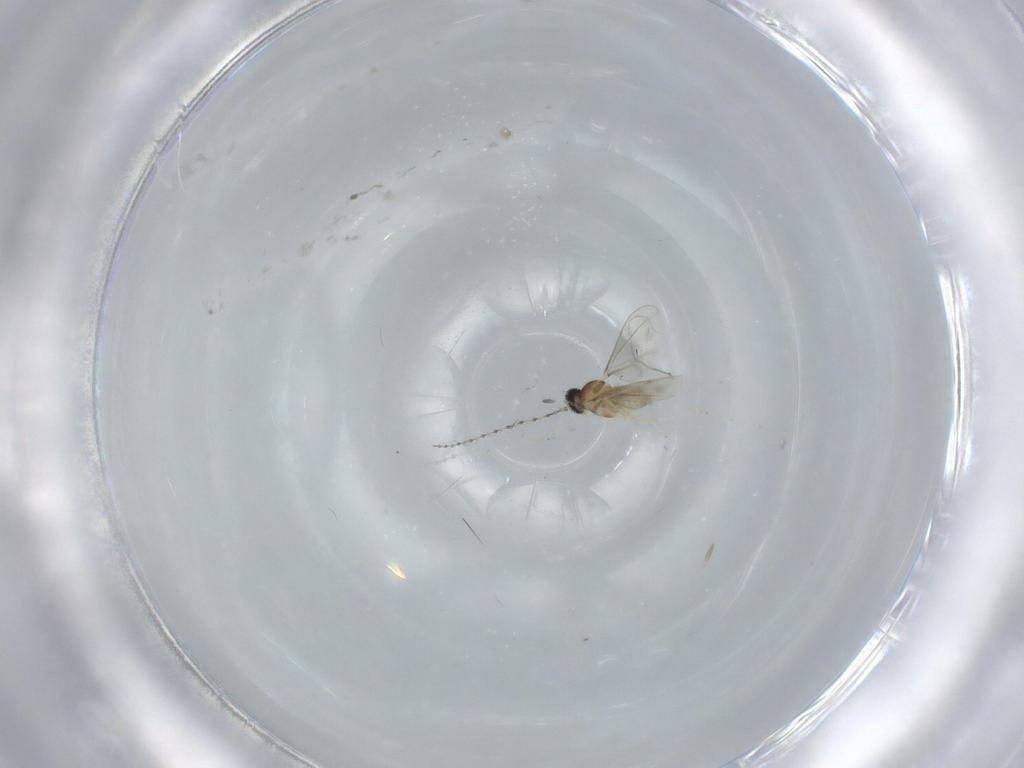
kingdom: Animalia
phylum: Arthropoda
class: Insecta
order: Diptera
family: Cecidomyiidae
